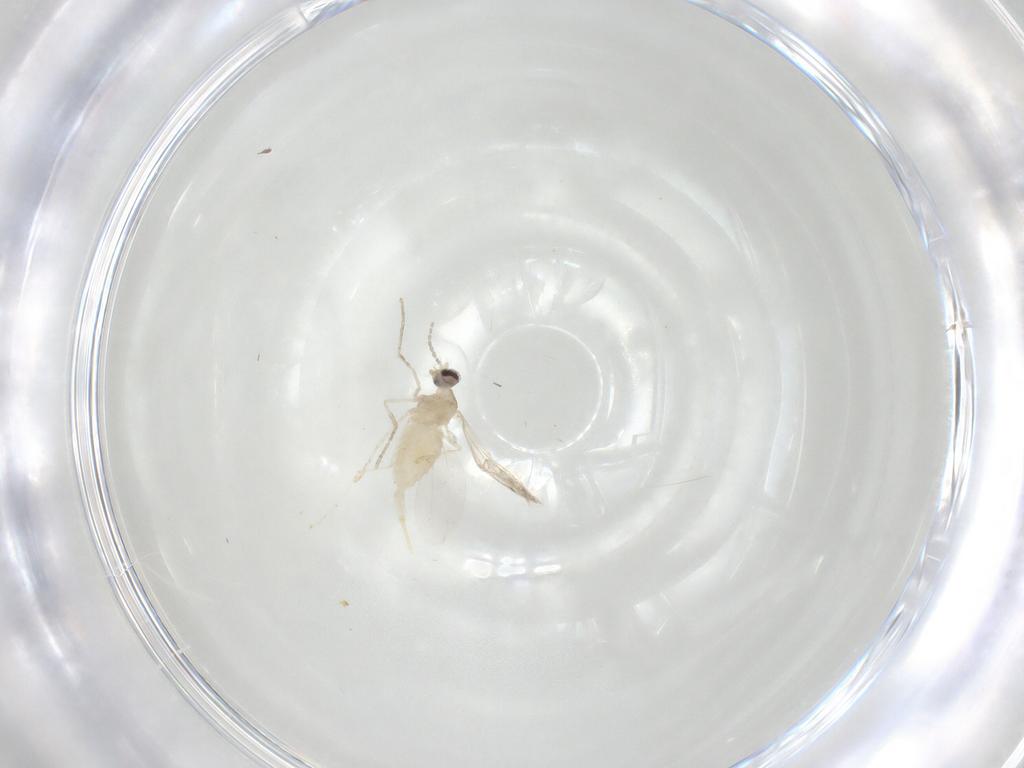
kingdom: Animalia
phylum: Arthropoda
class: Insecta
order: Diptera
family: Cecidomyiidae
